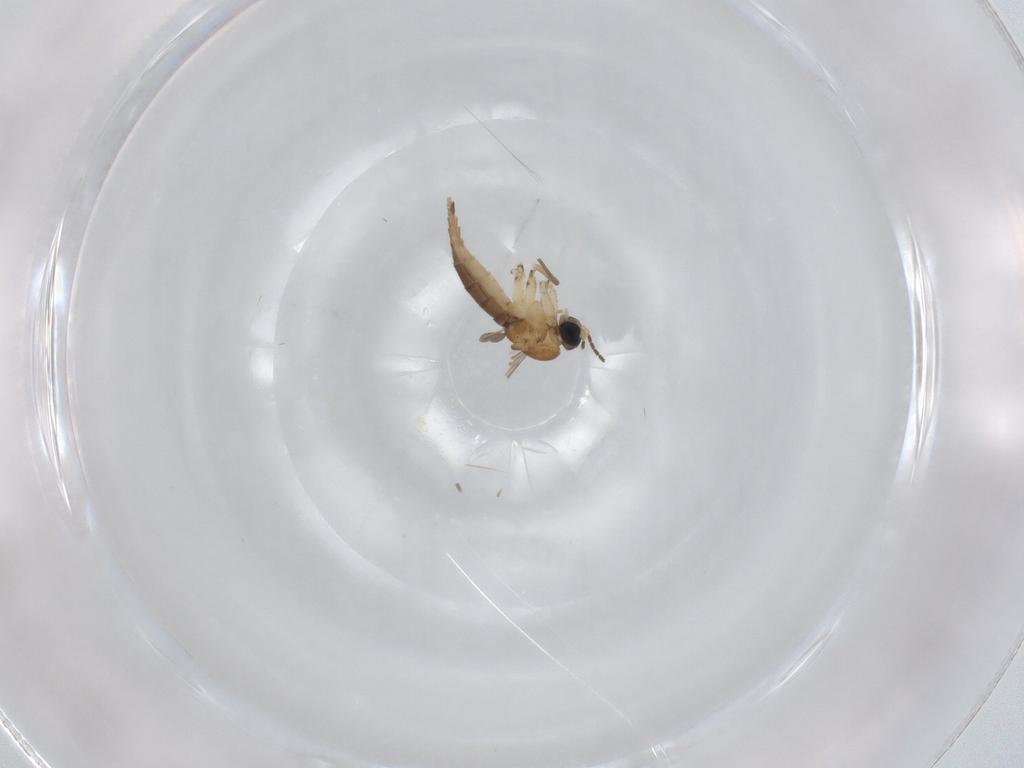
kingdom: Animalia
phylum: Arthropoda
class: Insecta
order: Diptera
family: Sciaridae
